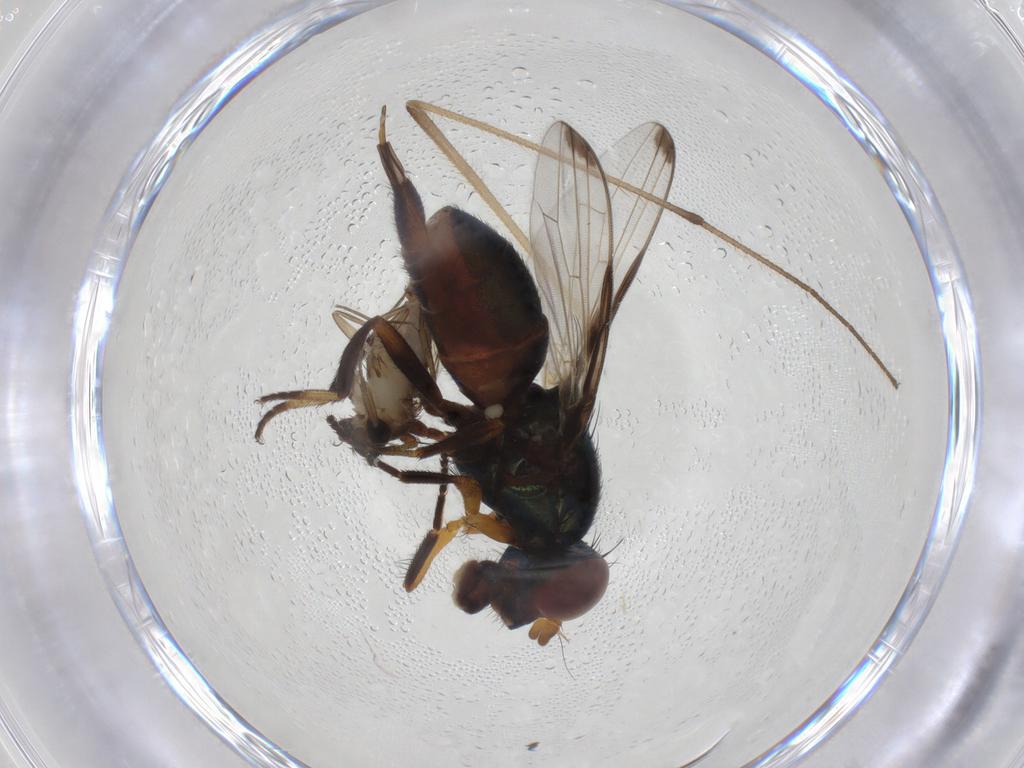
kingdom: Animalia
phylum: Arthropoda
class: Insecta
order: Diptera
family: Phoridae
